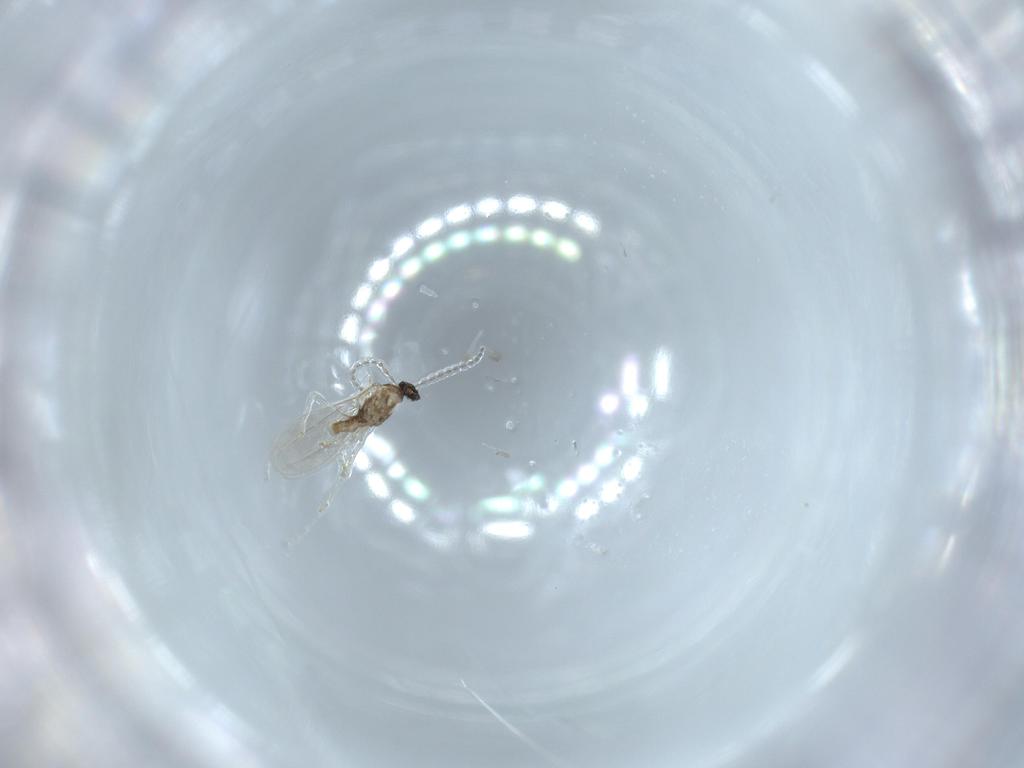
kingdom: Animalia
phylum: Arthropoda
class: Insecta
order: Diptera
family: Cecidomyiidae
